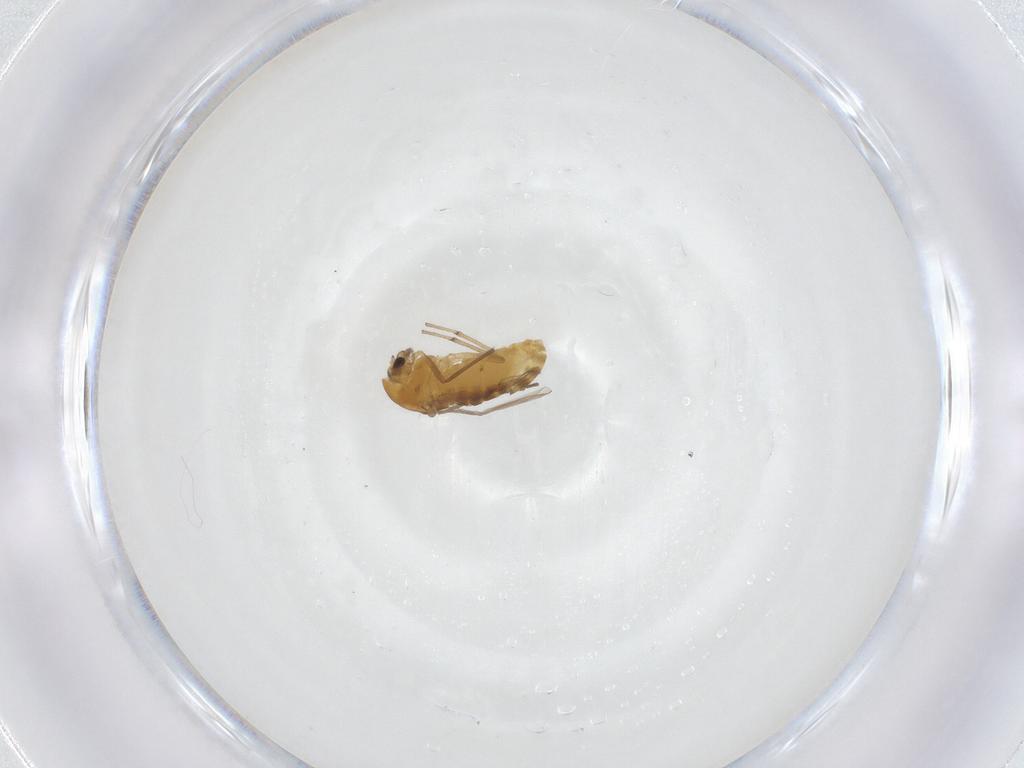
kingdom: Animalia
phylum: Arthropoda
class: Insecta
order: Diptera
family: Chironomidae
